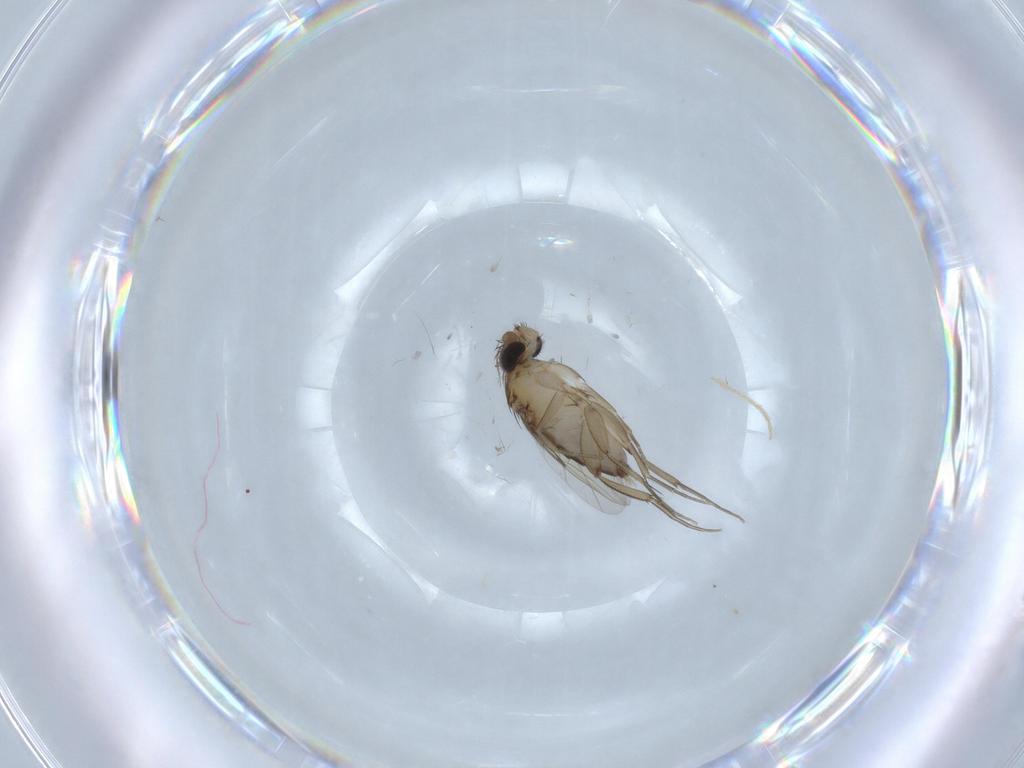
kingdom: Animalia
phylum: Arthropoda
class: Insecta
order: Diptera
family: Phoridae
